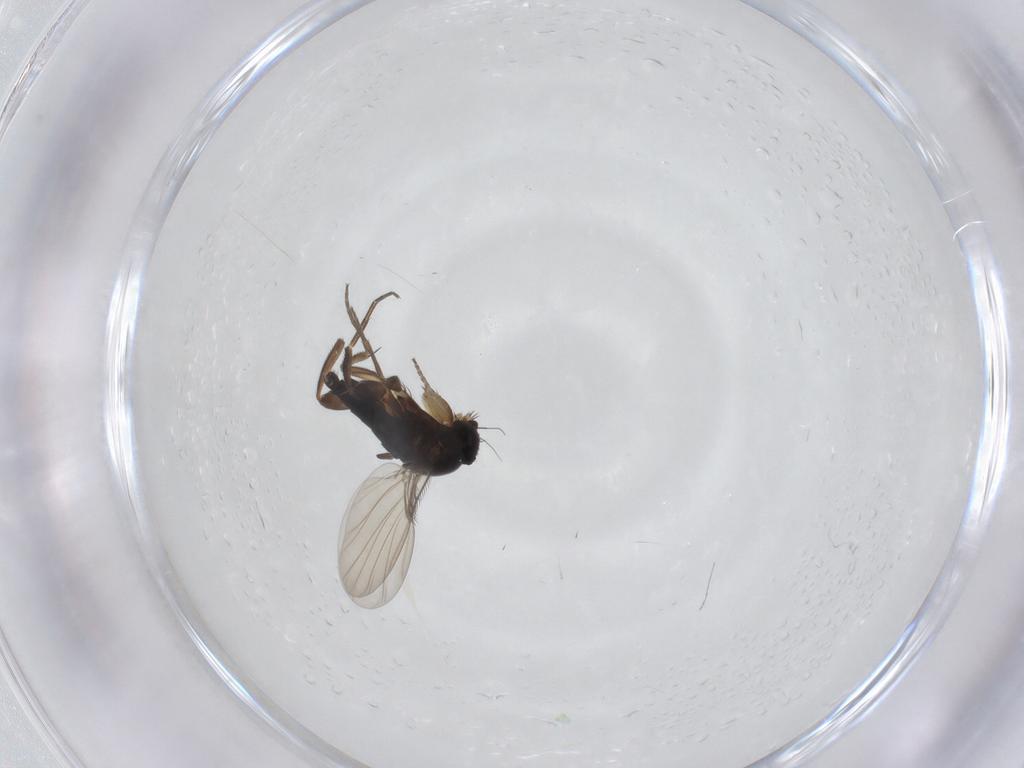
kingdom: Animalia
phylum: Arthropoda
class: Insecta
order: Diptera
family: Phoridae
